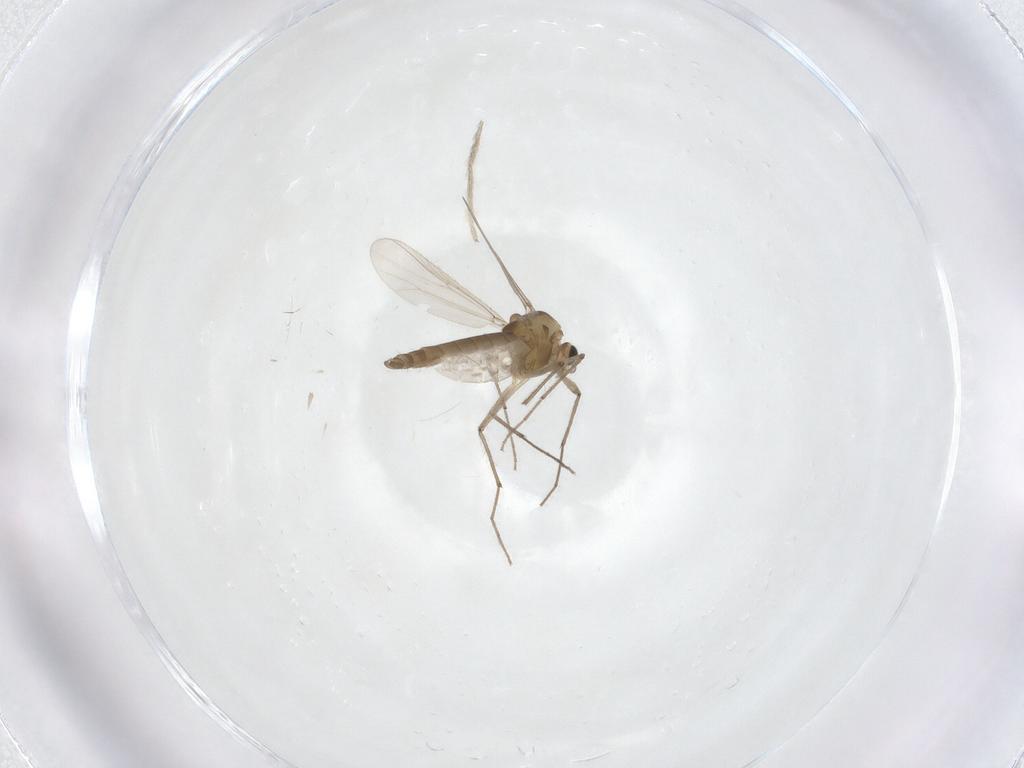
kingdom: Animalia
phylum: Arthropoda
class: Insecta
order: Diptera
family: Chironomidae
